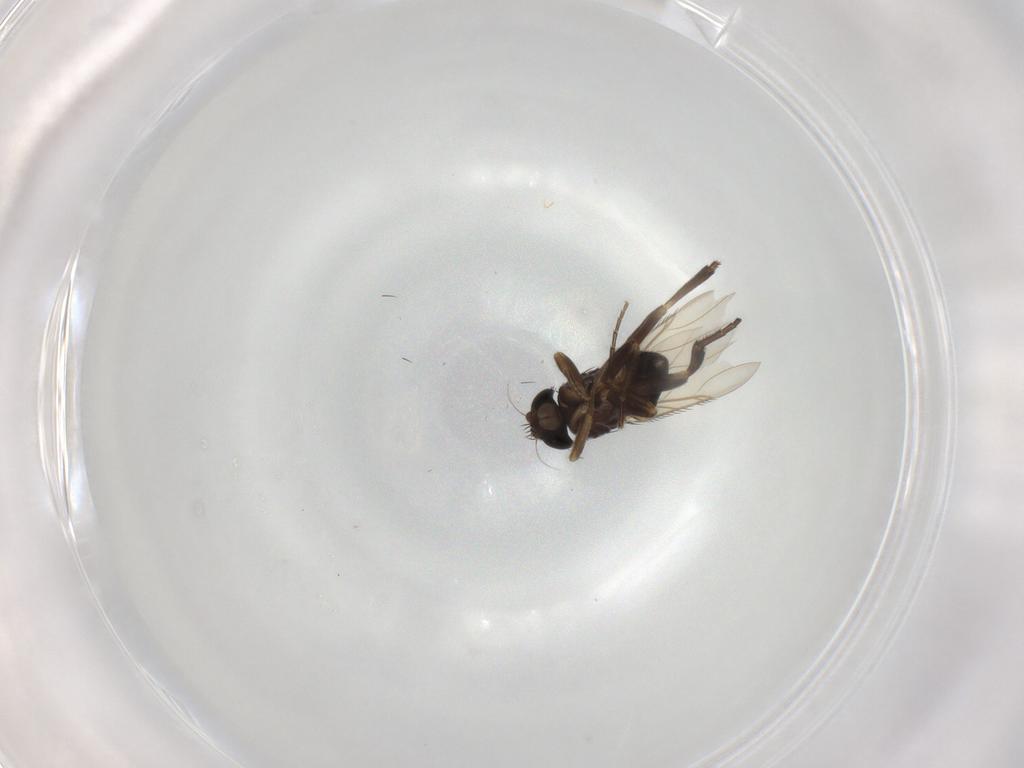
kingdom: Animalia
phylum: Arthropoda
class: Insecta
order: Diptera
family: Phoridae
